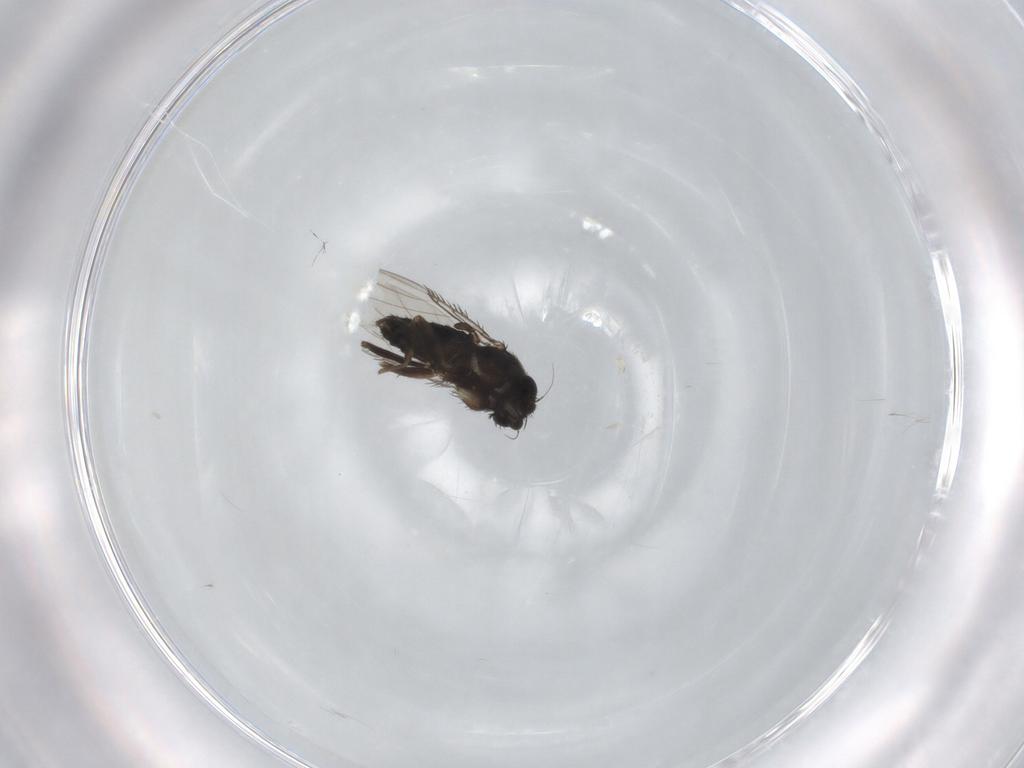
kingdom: Animalia
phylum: Arthropoda
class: Insecta
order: Diptera
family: Phoridae
